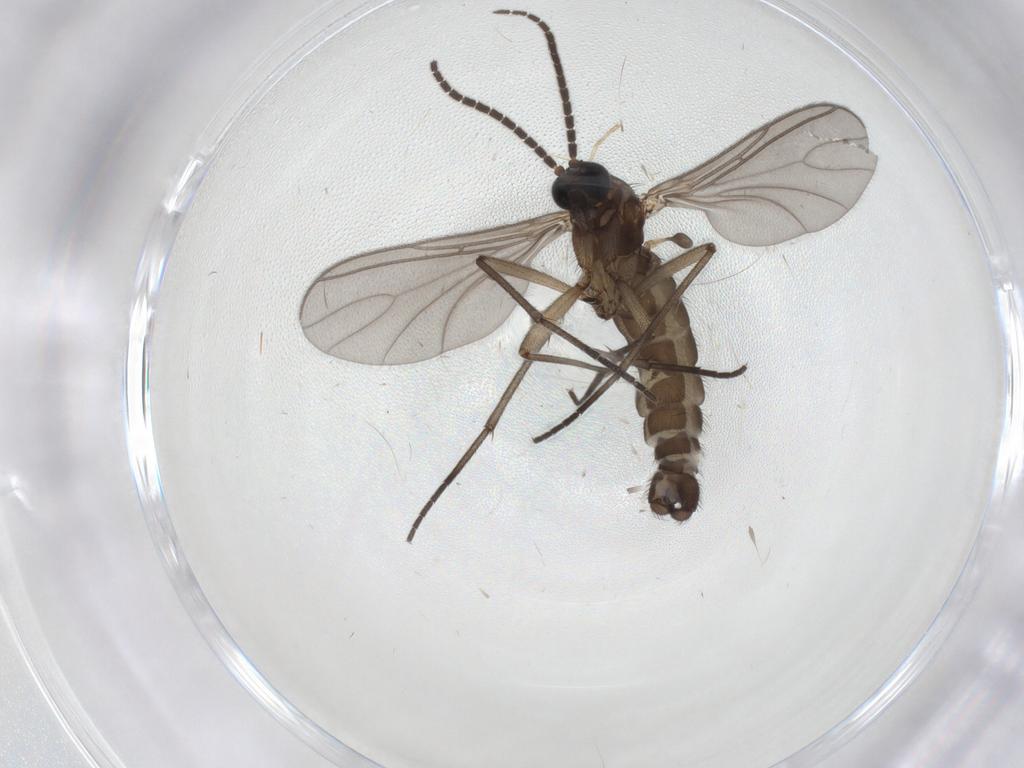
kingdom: Animalia
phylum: Arthropoda
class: Insecta
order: Diptera
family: Sciaridae
